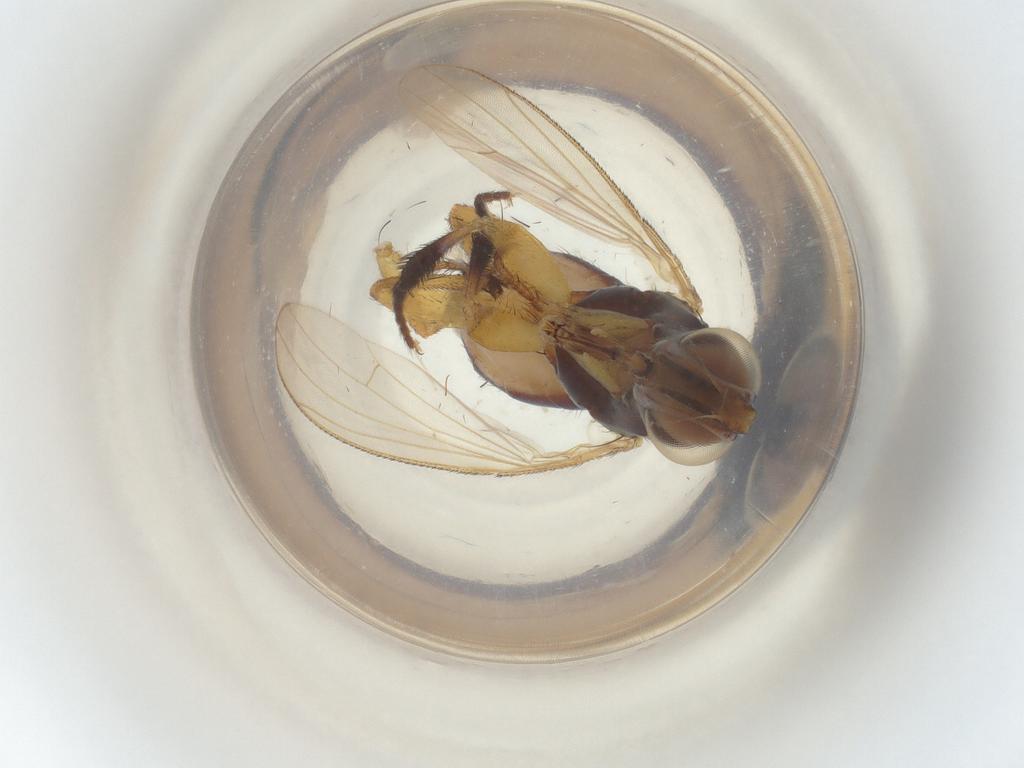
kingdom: Animalia
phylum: Arthropoda
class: Insecta
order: Diptera
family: Muscidae
